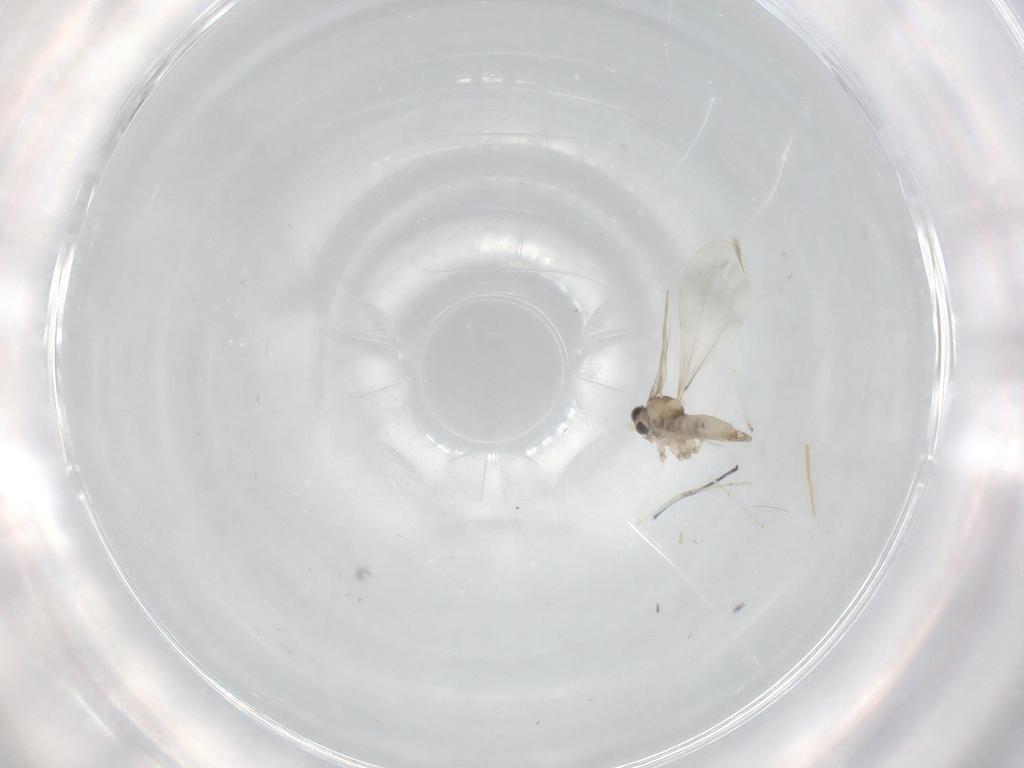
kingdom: Animalia
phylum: Arthropoda
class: Insecta
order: Diptera
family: Cecidomyiidae
